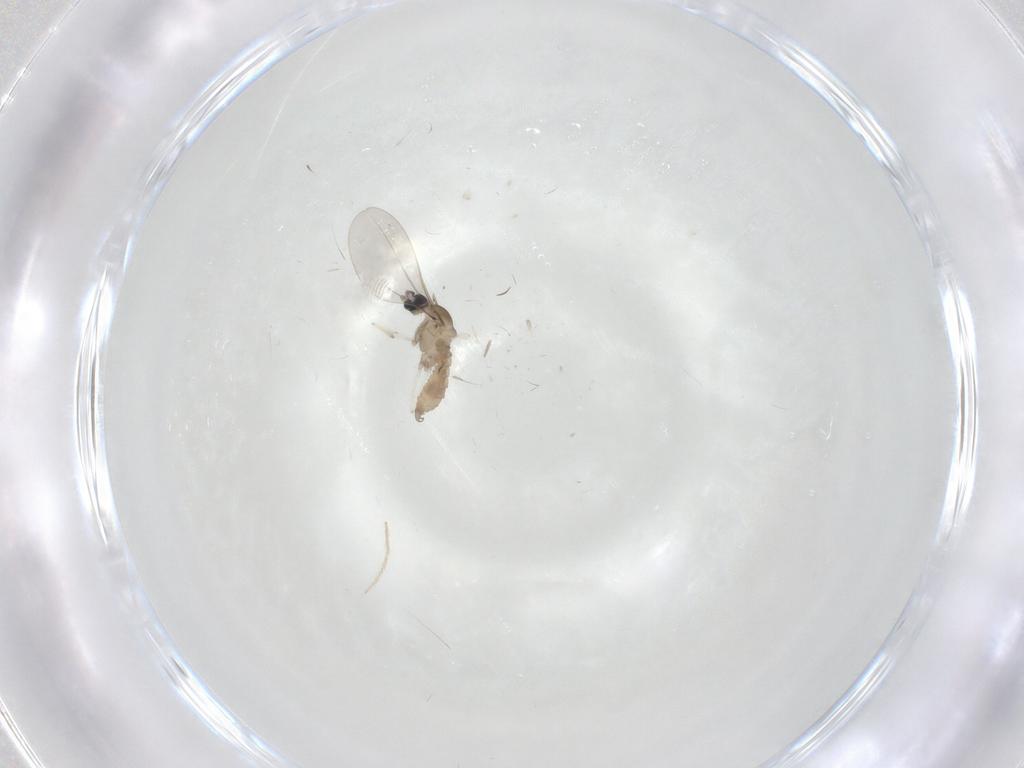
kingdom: Animalia
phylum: Arthropoda
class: Insecta
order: Diptera
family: Cecidomyiidae
